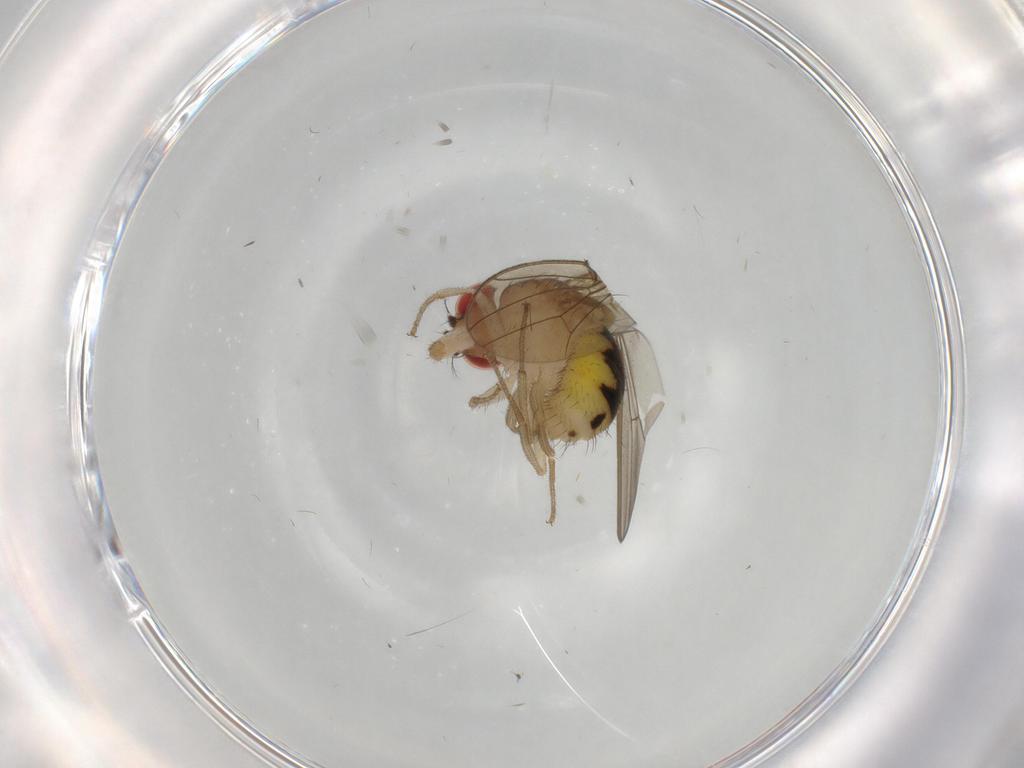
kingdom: Animalia
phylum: Arthropoda
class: Insecta
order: Diptera
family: Drosophilidae
